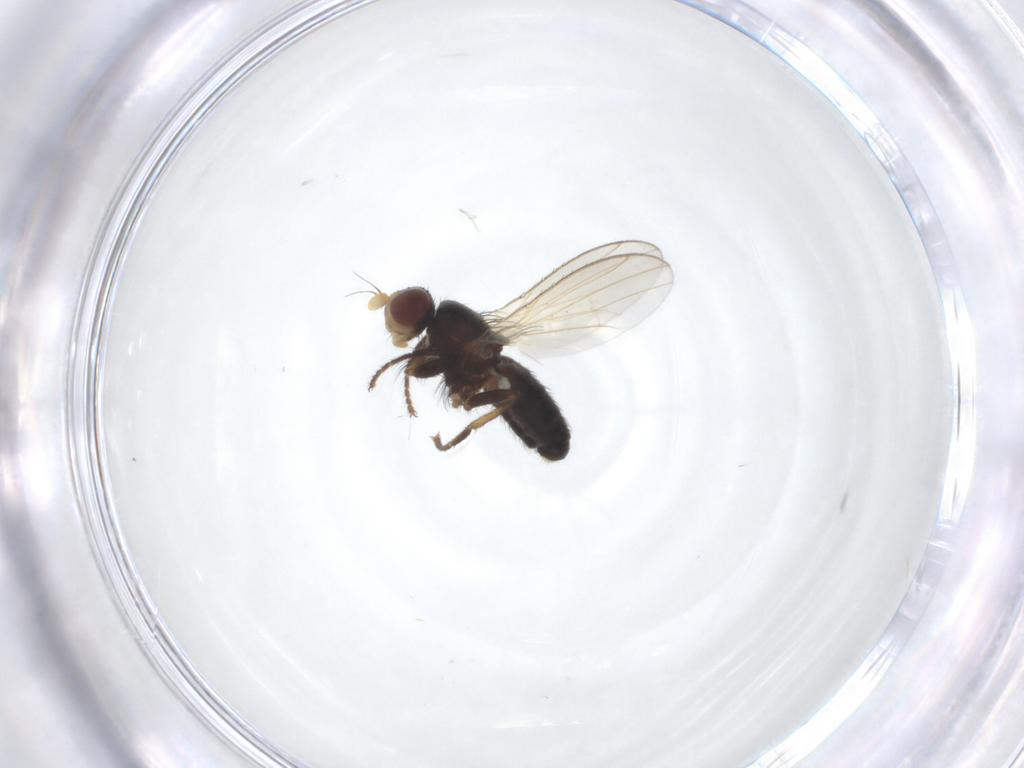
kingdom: Animalia
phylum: Arthropoda
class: Insecta
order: Diptera
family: Heleomyzidae
